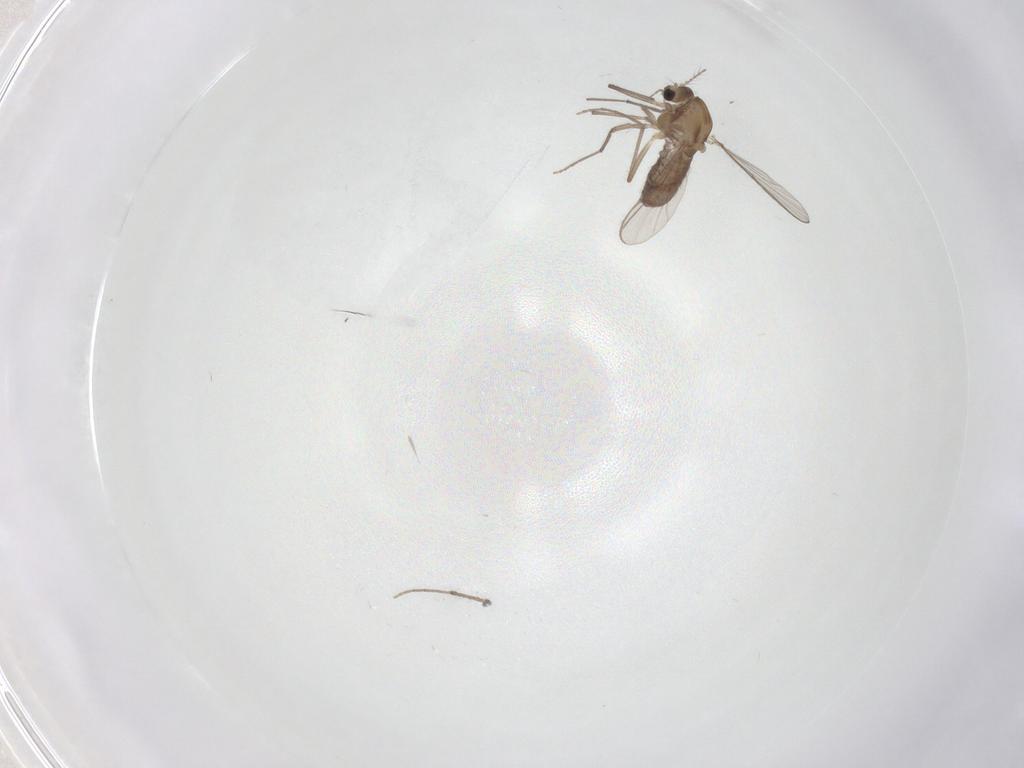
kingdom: Animalia
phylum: Arthropoda
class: Insecta
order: Diptera
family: Chironomidae
